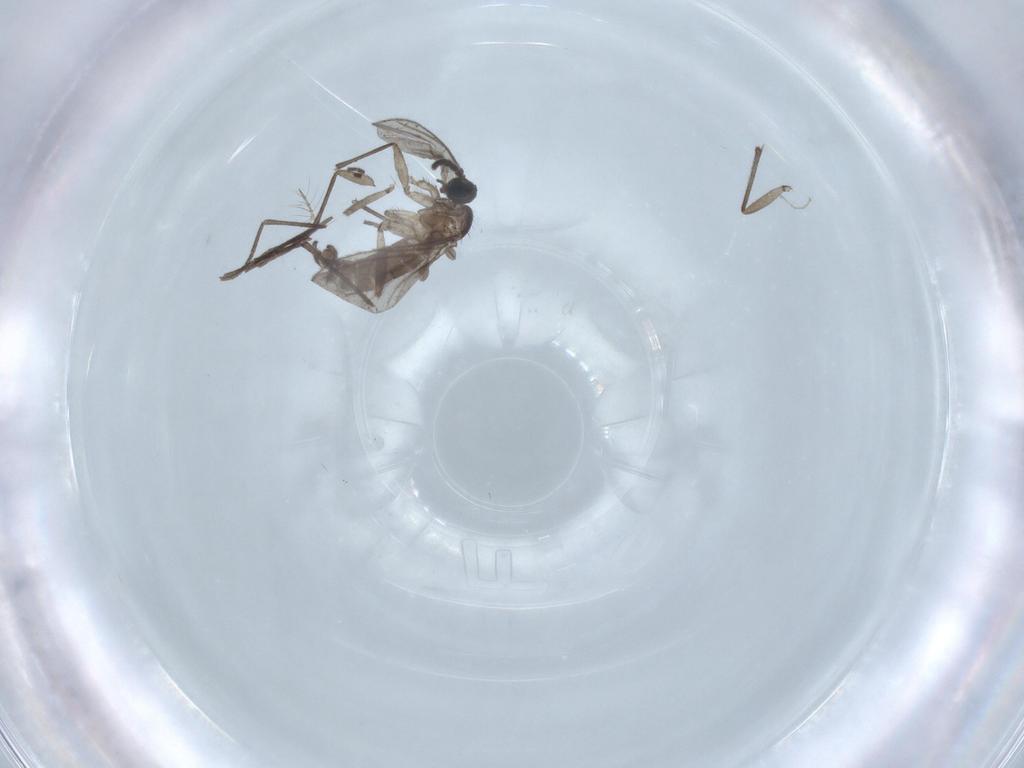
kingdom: Animalia
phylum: Arthropoda
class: Insecta
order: Diptera
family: Sciaridae
